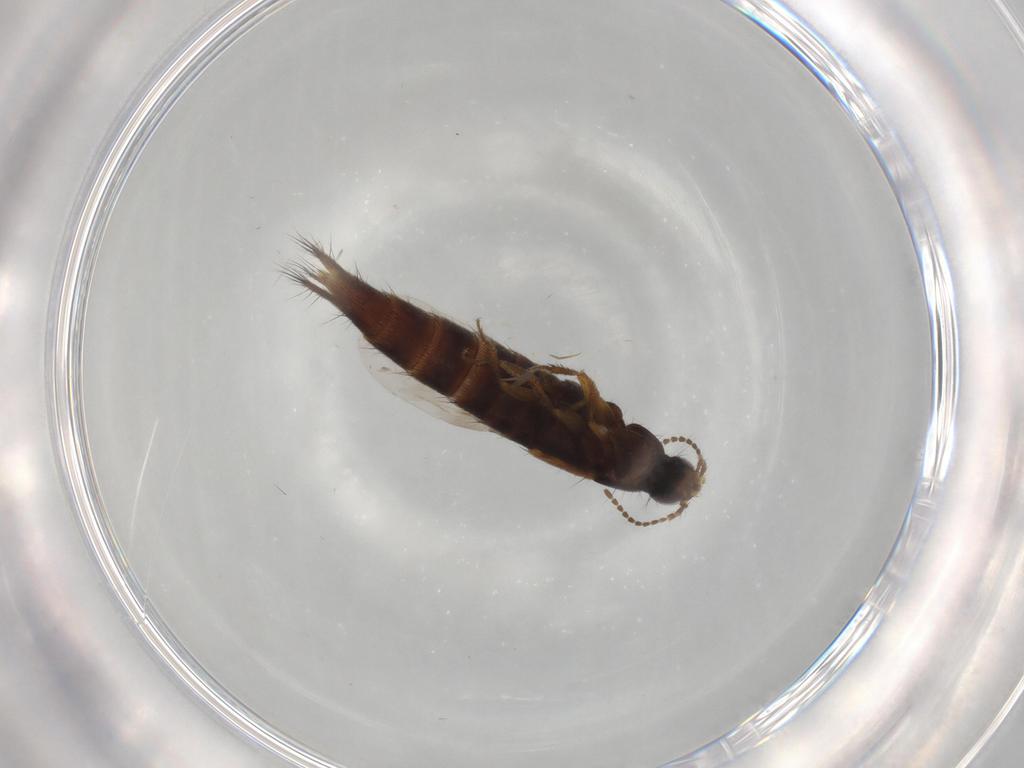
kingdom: Animalia
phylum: Arthropoda
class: Insecta
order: Coleoptera
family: Staphylinidae
